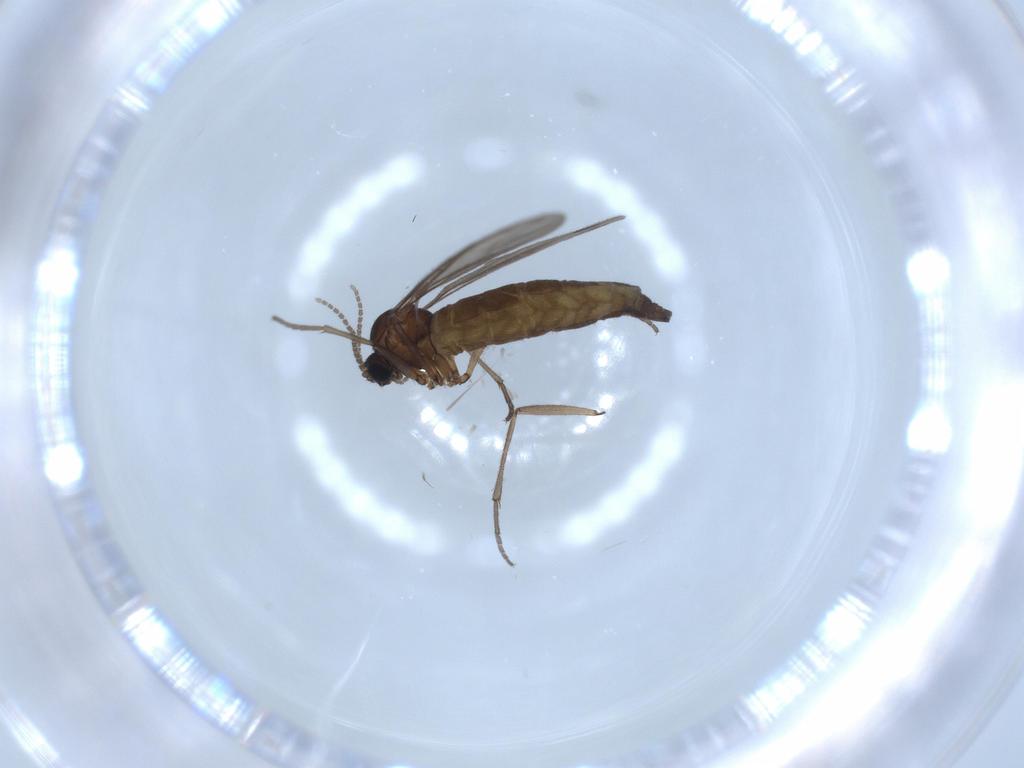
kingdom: Animalia
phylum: Arthropoda
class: Insecta
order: Diptera
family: Sciaridae
